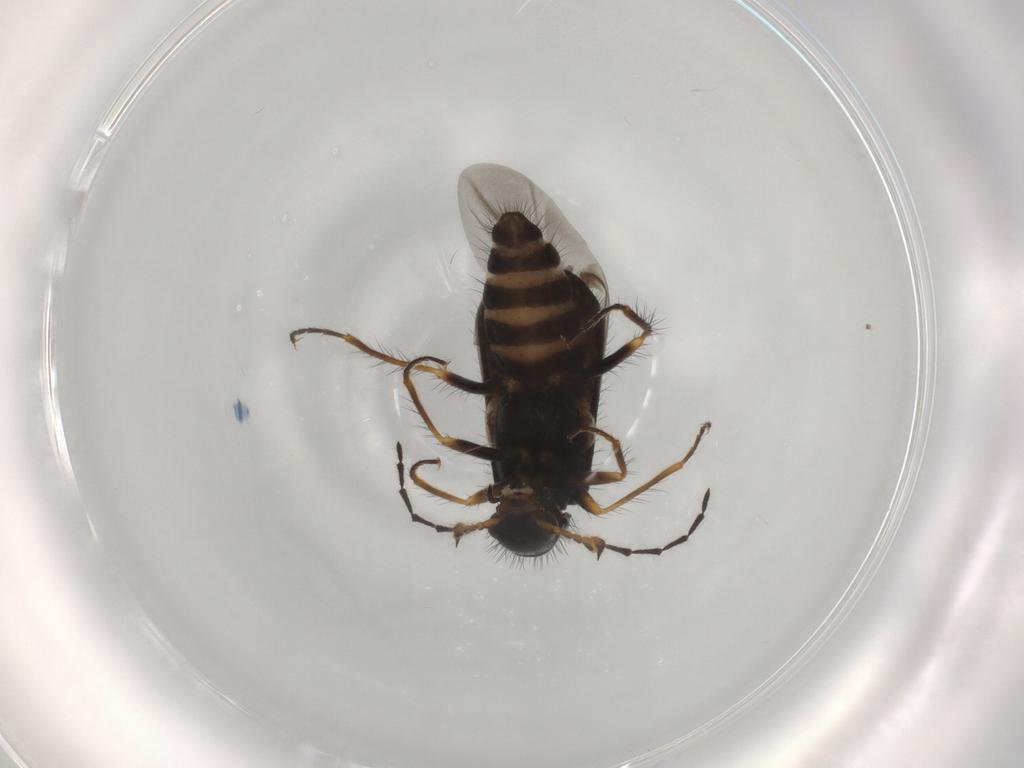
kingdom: Animalia
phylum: Arthropoda
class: Insecta
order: Coleoptera
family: Melyridae
